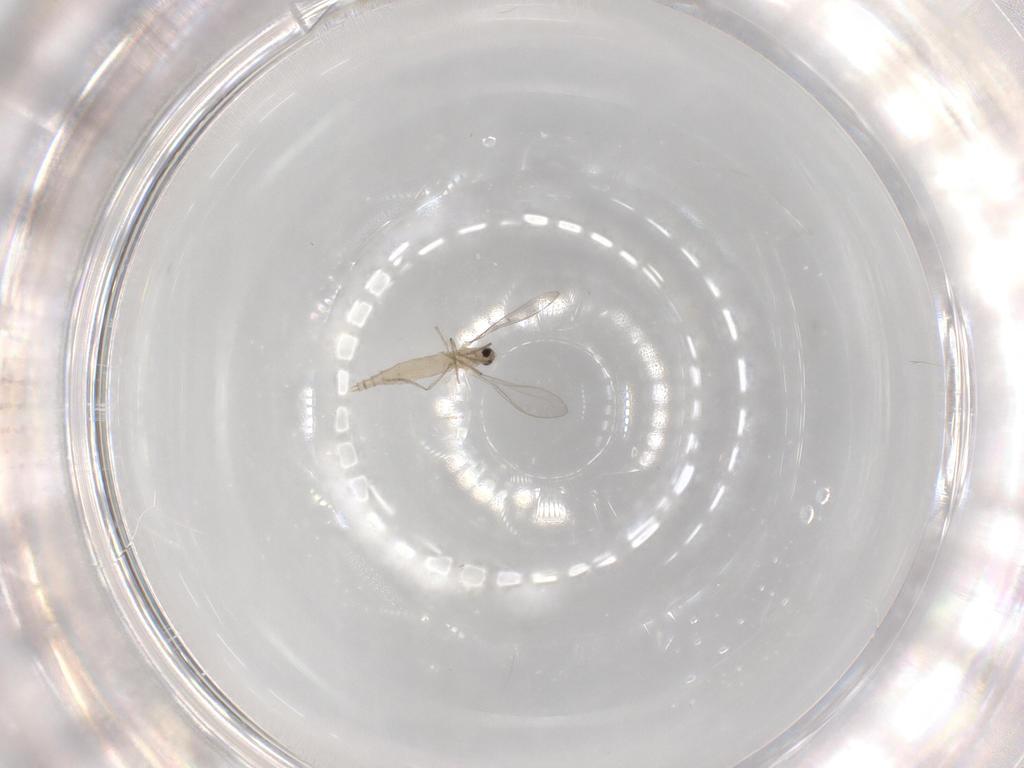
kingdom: Animalia
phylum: Arthropoda
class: Insecta
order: Diptera
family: Cecidomyiidae
